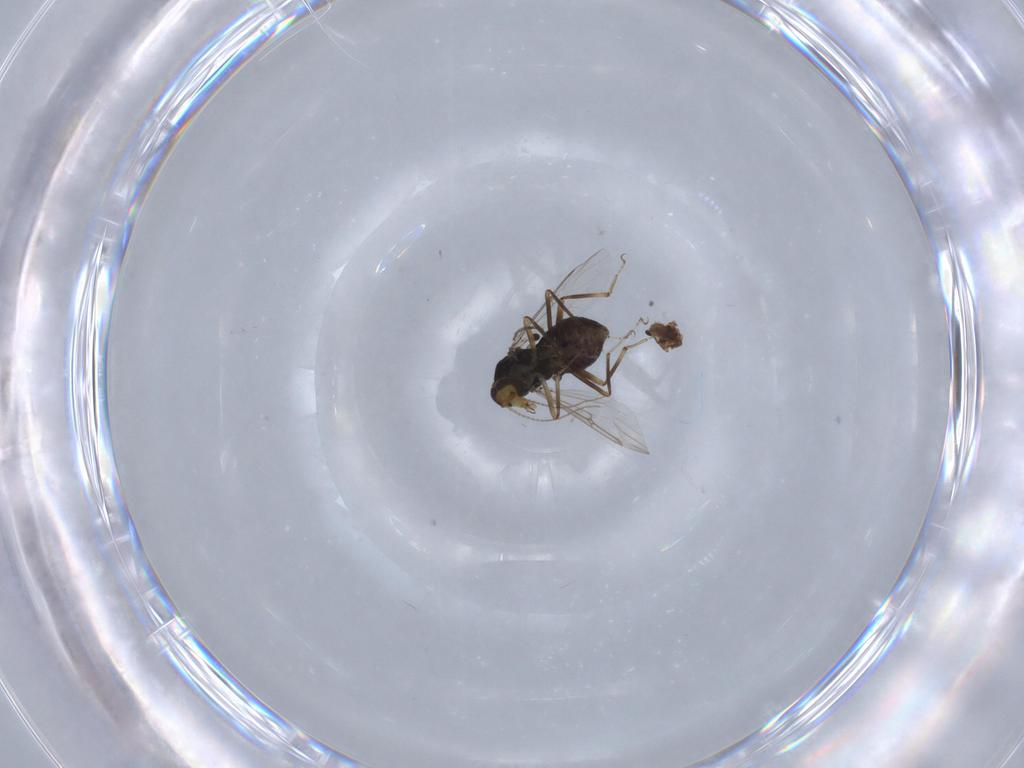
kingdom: Animalia
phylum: Arthropoda
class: Insecta
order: Diptera
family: Chironomidae
